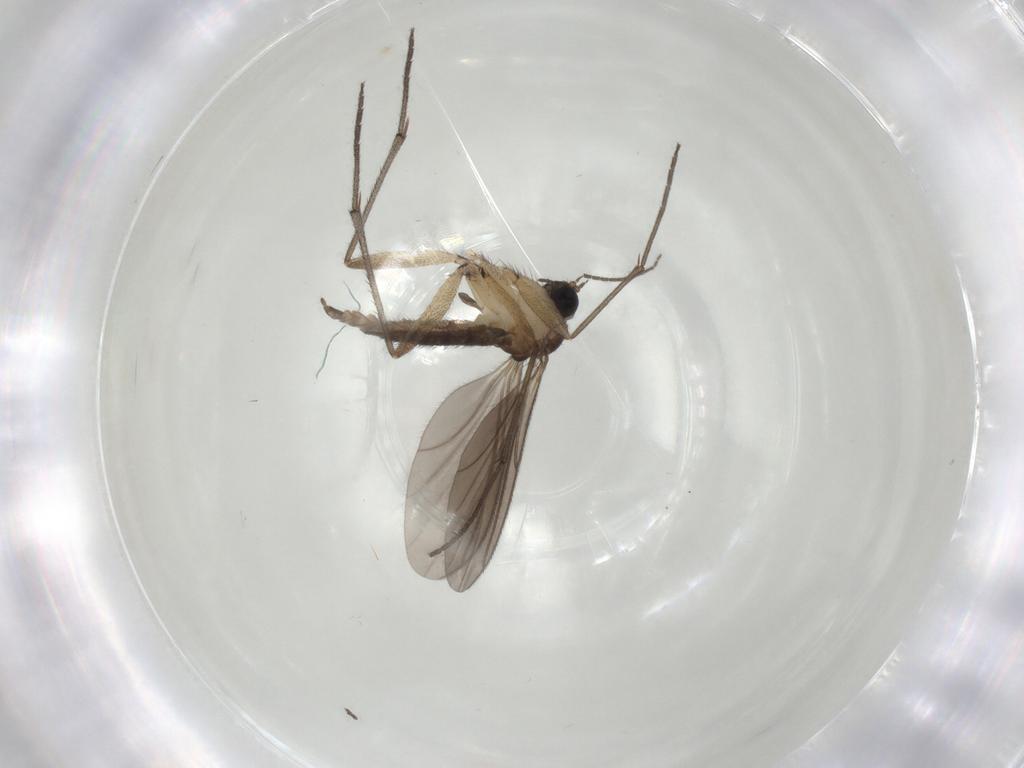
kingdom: Animalia
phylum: Arthropoda
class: Insecta
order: Diptera
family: Sciaridae
